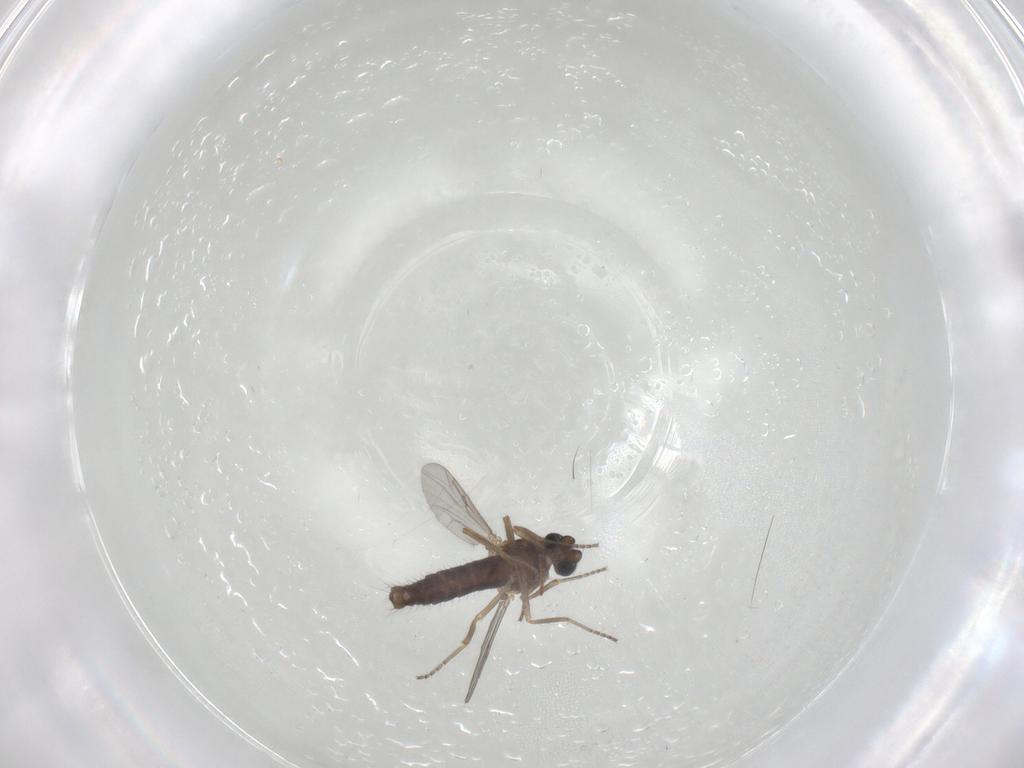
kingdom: Animalia
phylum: Arthropoda
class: Insecta
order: Diptera
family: Ceratopogonidae
